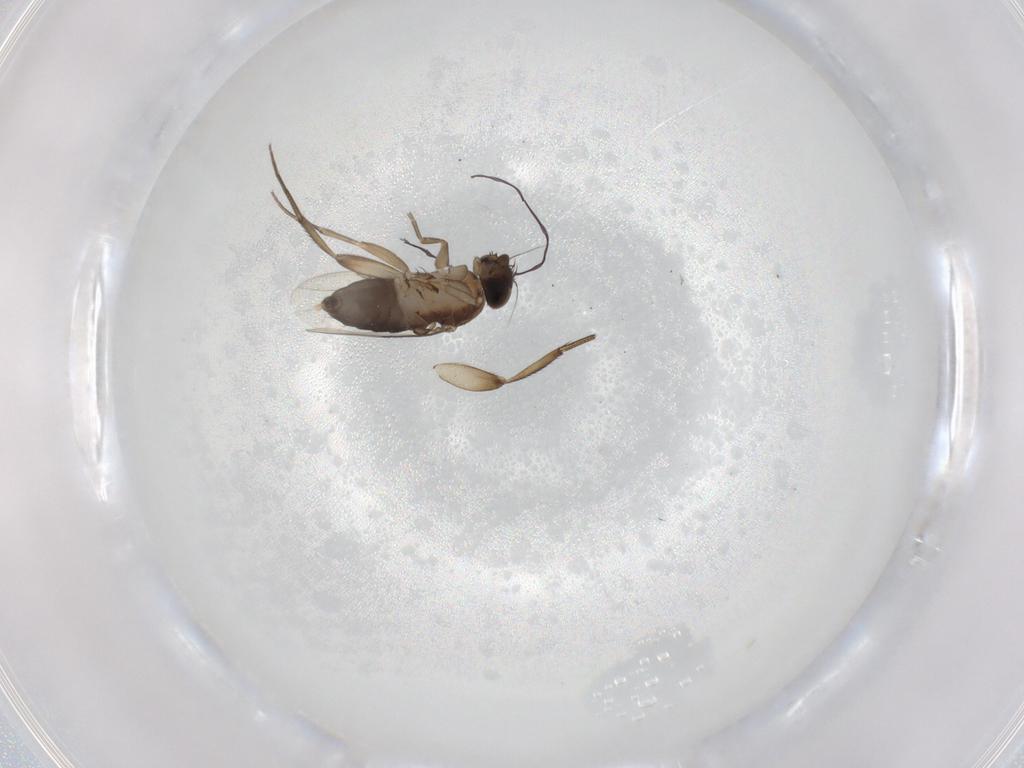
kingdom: Animalia
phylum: Arthropoda
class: Insecta
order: Diptera
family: Phoridae
